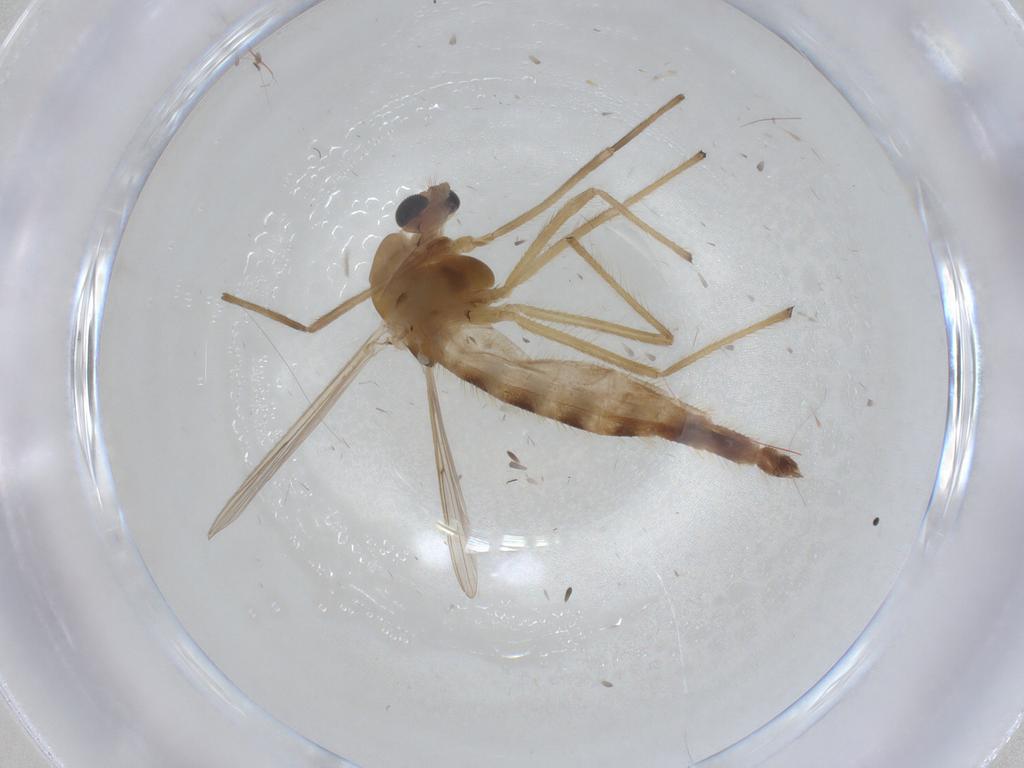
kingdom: Animalia
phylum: Arthropoda
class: Insecta
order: Diptera
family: Chironomidae
